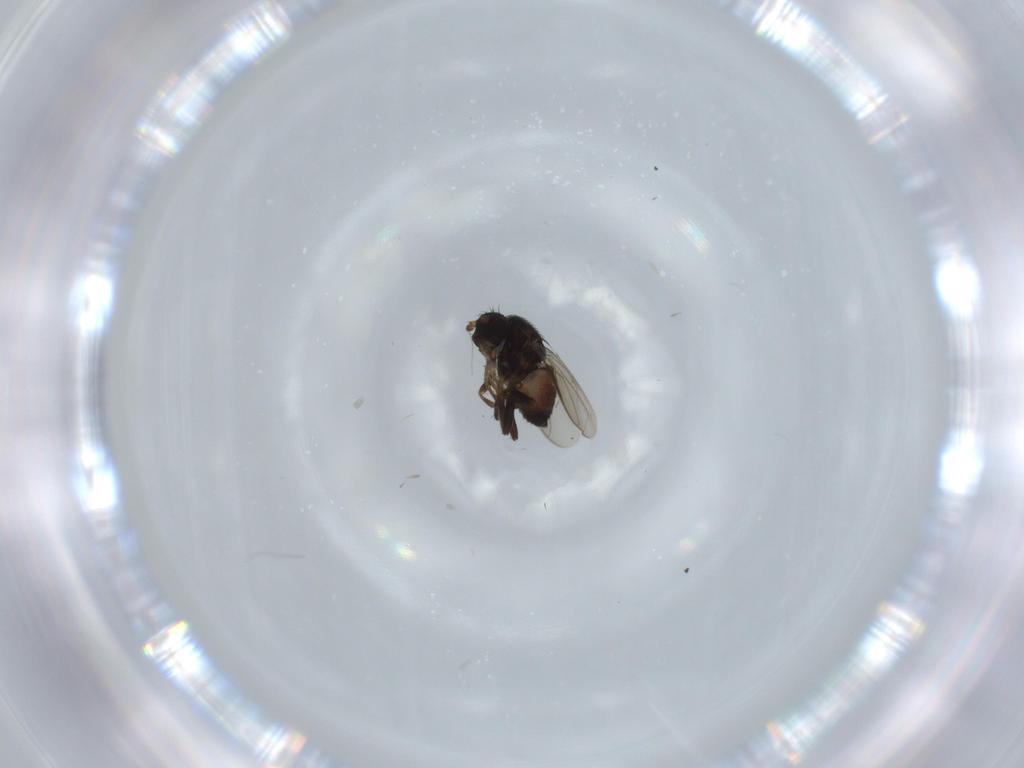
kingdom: Animalia
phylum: Arthropoda
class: Insecta
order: Diptera
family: Sphaeroceridae
